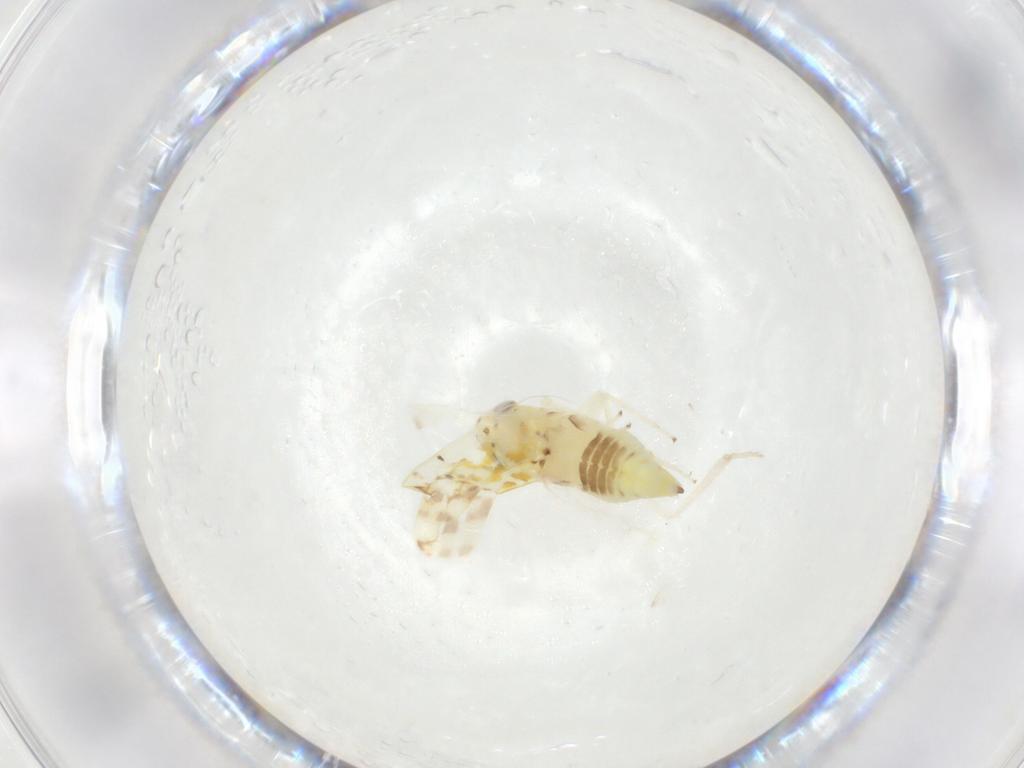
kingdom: Animalia
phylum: Arthropoda
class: Insecta
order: Hemiptera
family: Cicadellidae
